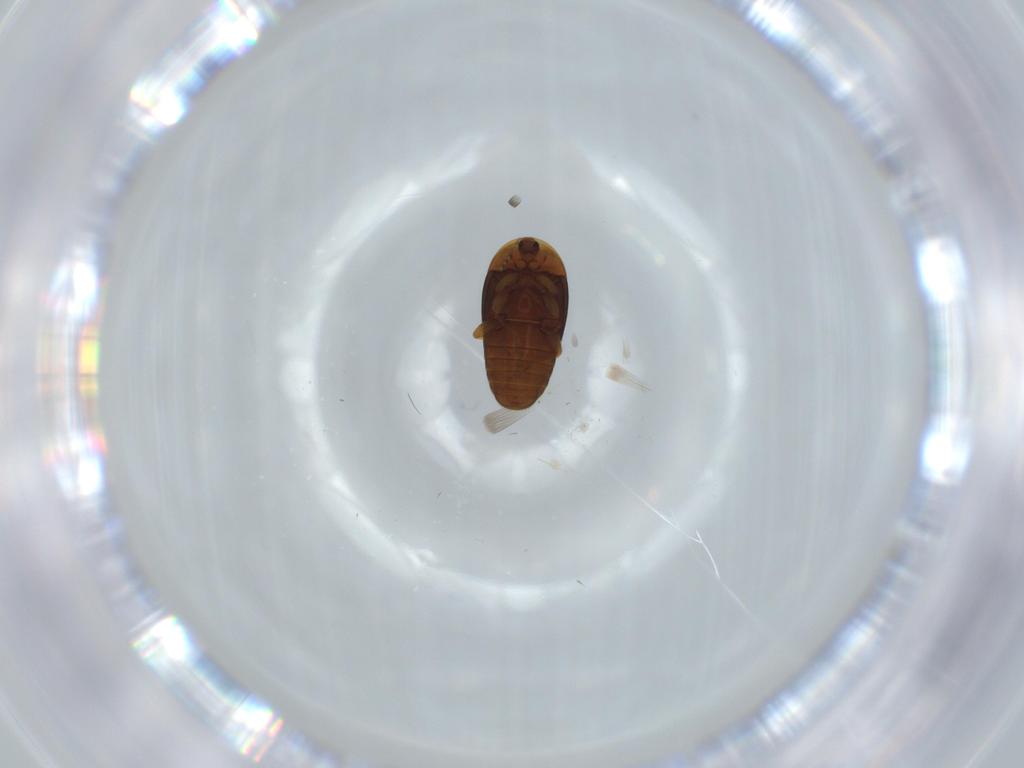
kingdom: Animalia
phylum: Arthropoda
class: Insecta
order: Coleoptera
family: Corylophidae
